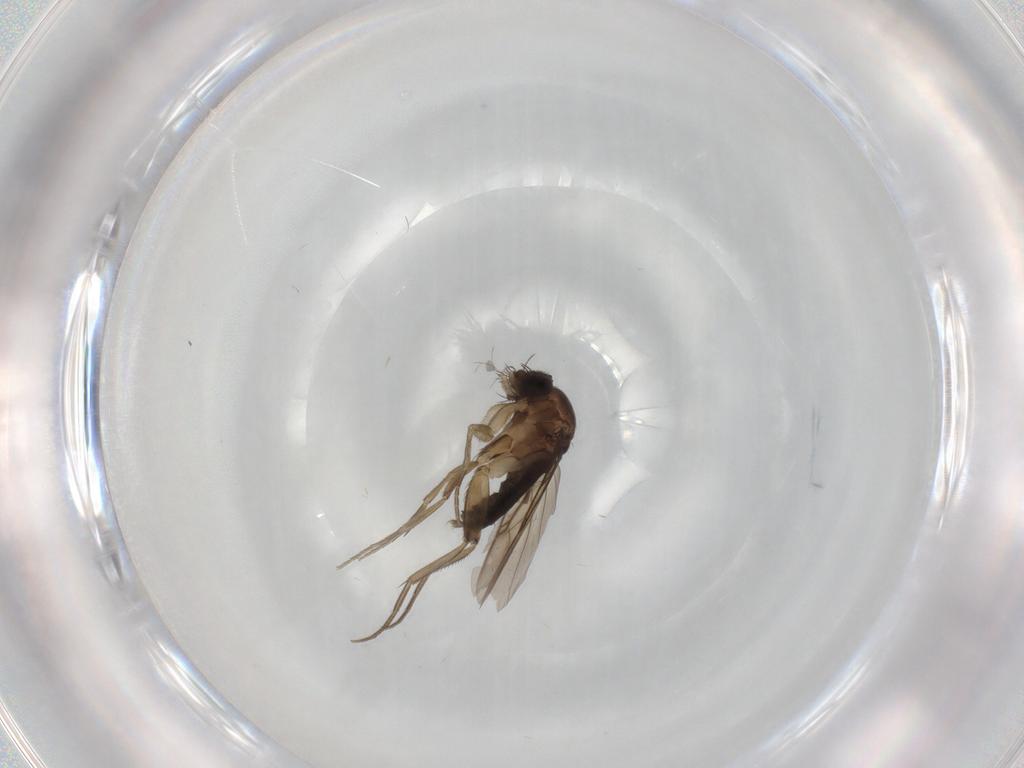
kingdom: Animalia
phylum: Arthropoda
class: Insecta
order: Diptera
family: Phoridae
